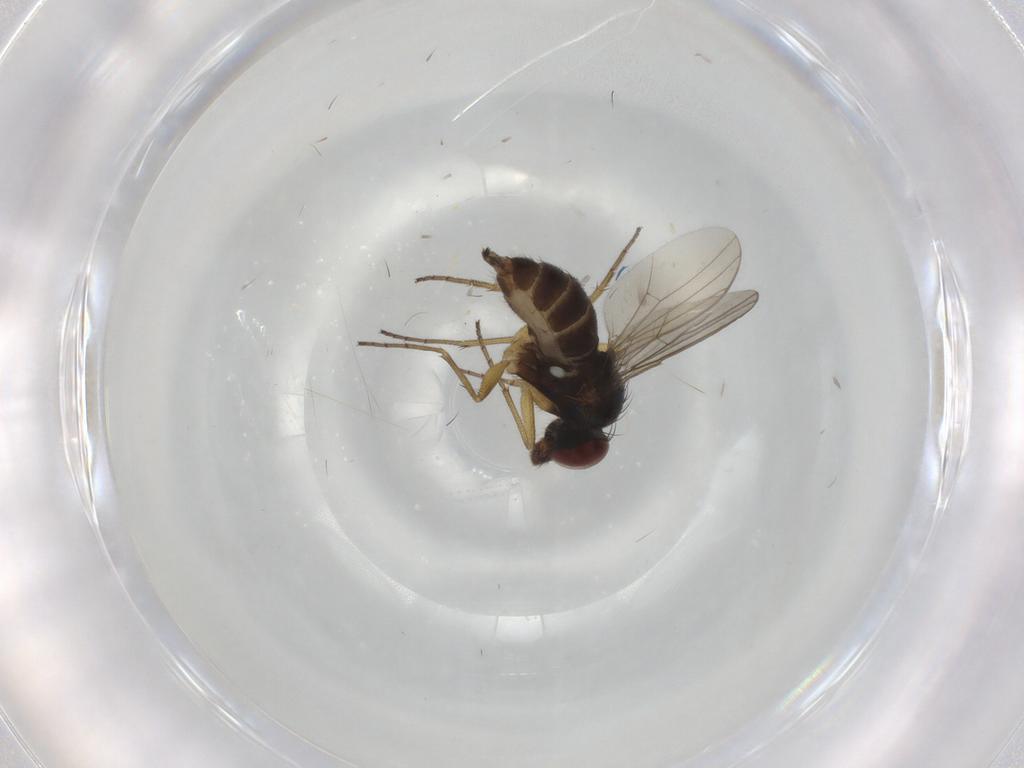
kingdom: Animalia
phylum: Arthropoda
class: Insecta
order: Diptera
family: Dolichopodidae
